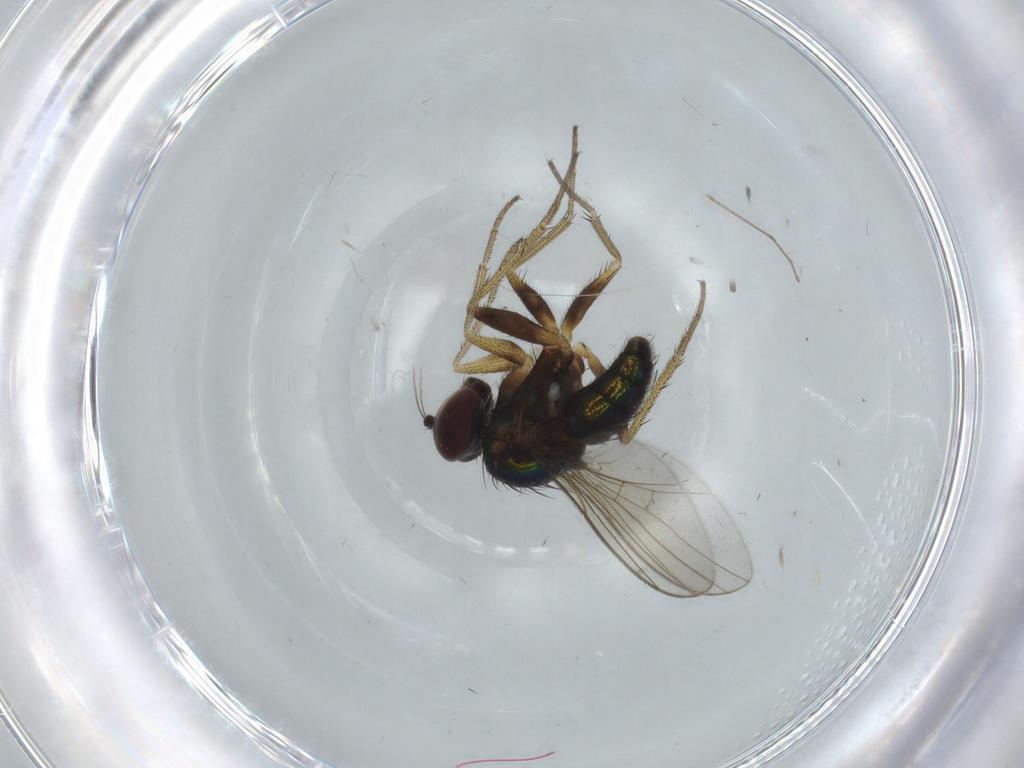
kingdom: Animalia
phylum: Arthropoda
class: Insecta
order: Diptera
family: Dolichopodidae
